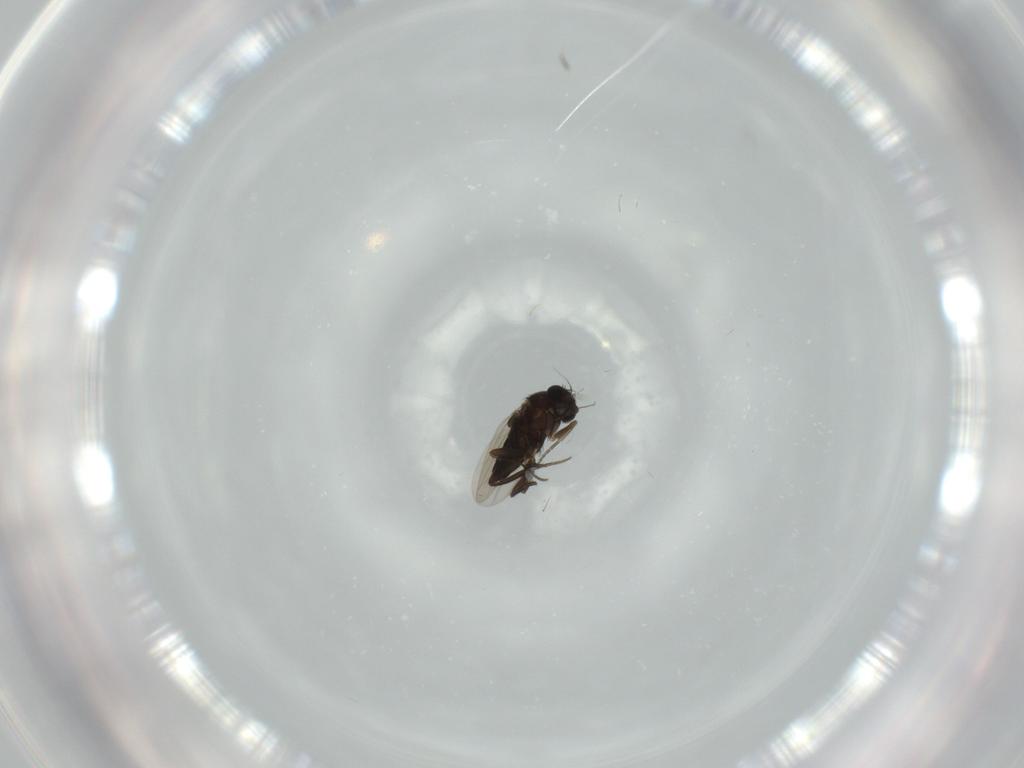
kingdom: Animalia
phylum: Arthropoda
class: Insecta
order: Diptera
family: Phoridae
